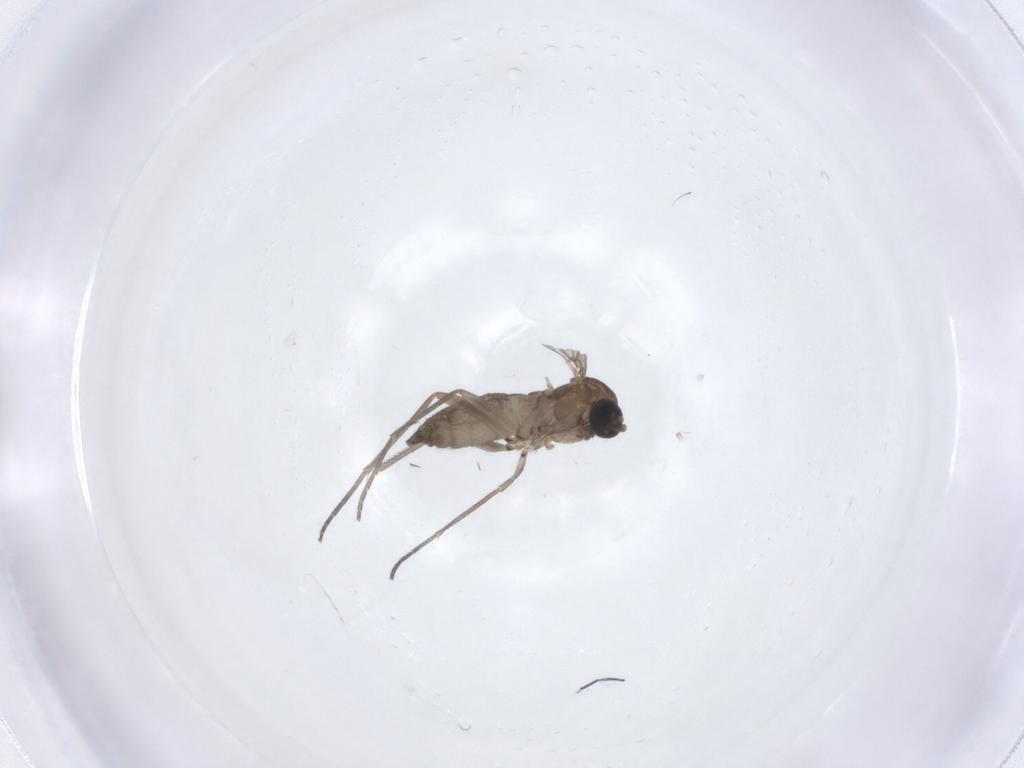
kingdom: Animalia
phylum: Arthropoda
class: Insecta
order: Diptera
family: Sciaridae
